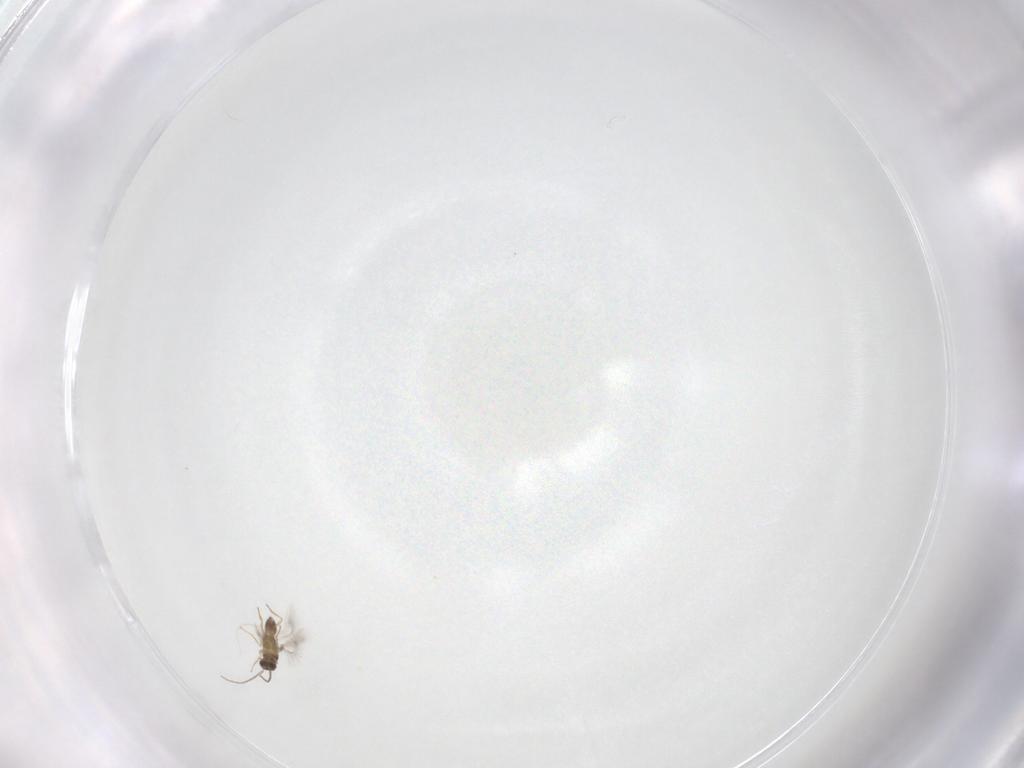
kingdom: Animalia
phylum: Arthropoda
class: Insecta
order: Hymenoptera
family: Mymaridae
